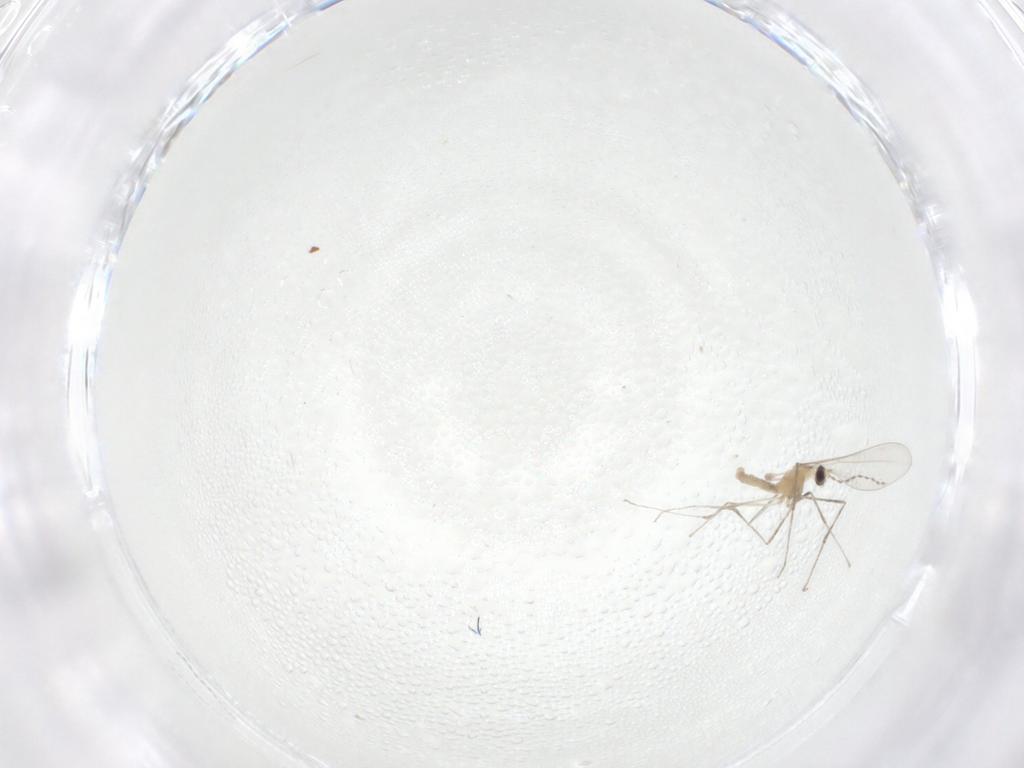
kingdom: Animalia
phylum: Arthropoda
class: Insecta
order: Diptera
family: Cecidomyiidae
